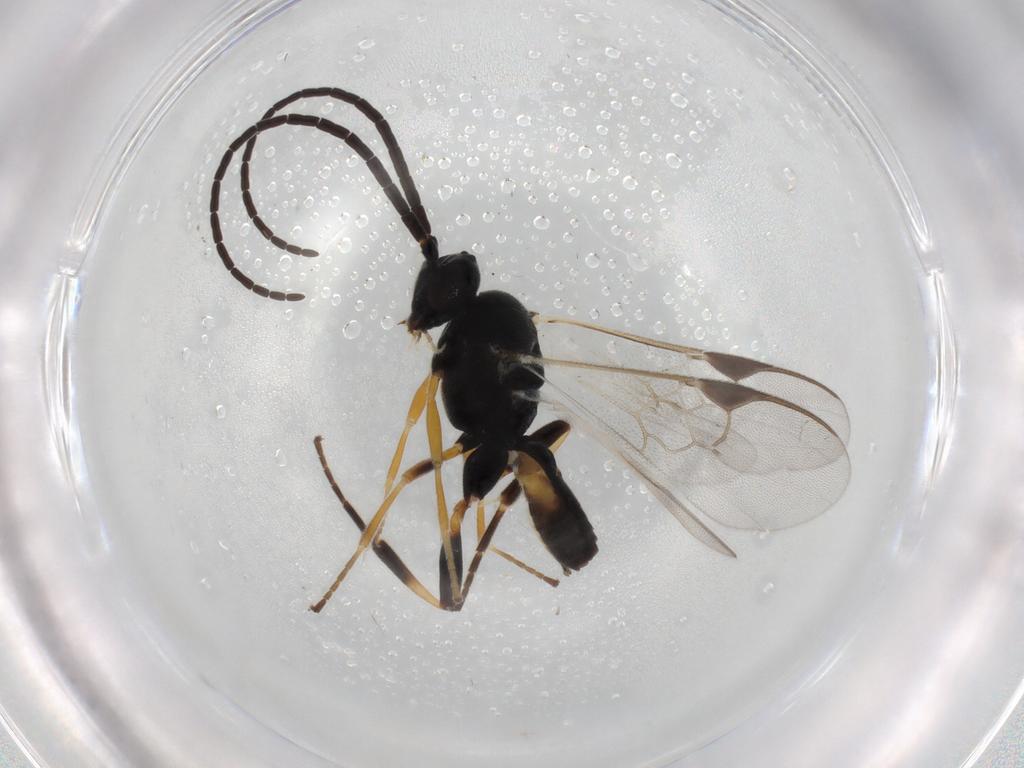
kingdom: Animalia
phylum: Arthropoda
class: Insecta
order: Hymenoptera
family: Braconidae
